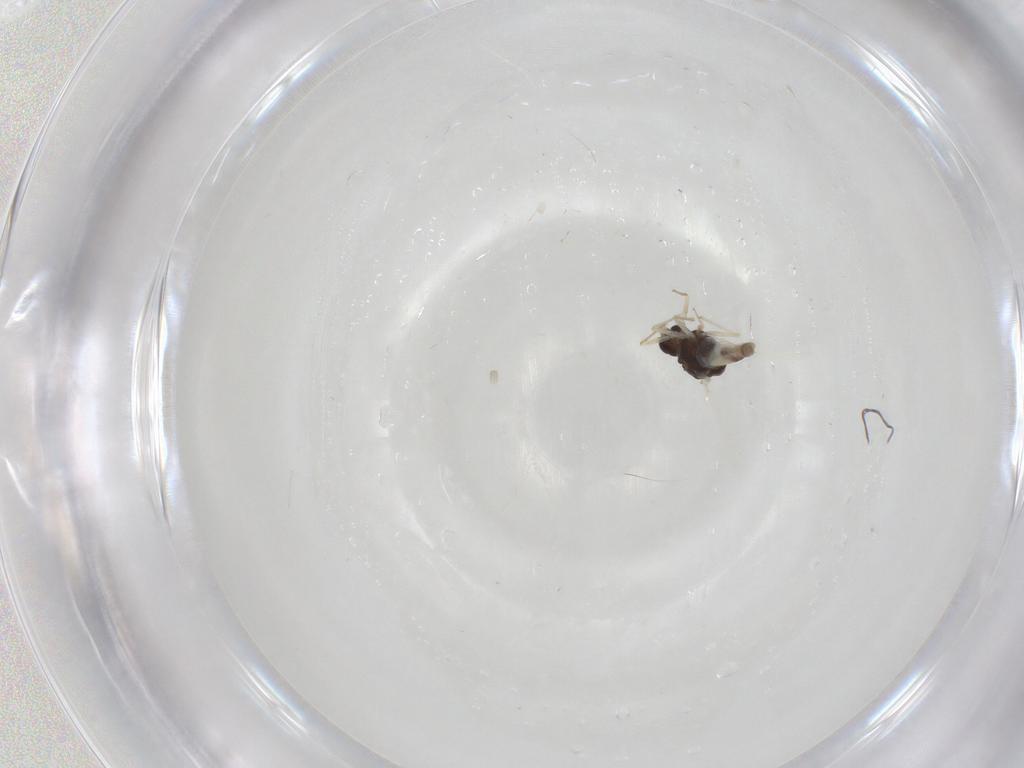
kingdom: Animalia
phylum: Arthropoda
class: Insecta
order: Diptera
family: Chironomidae
